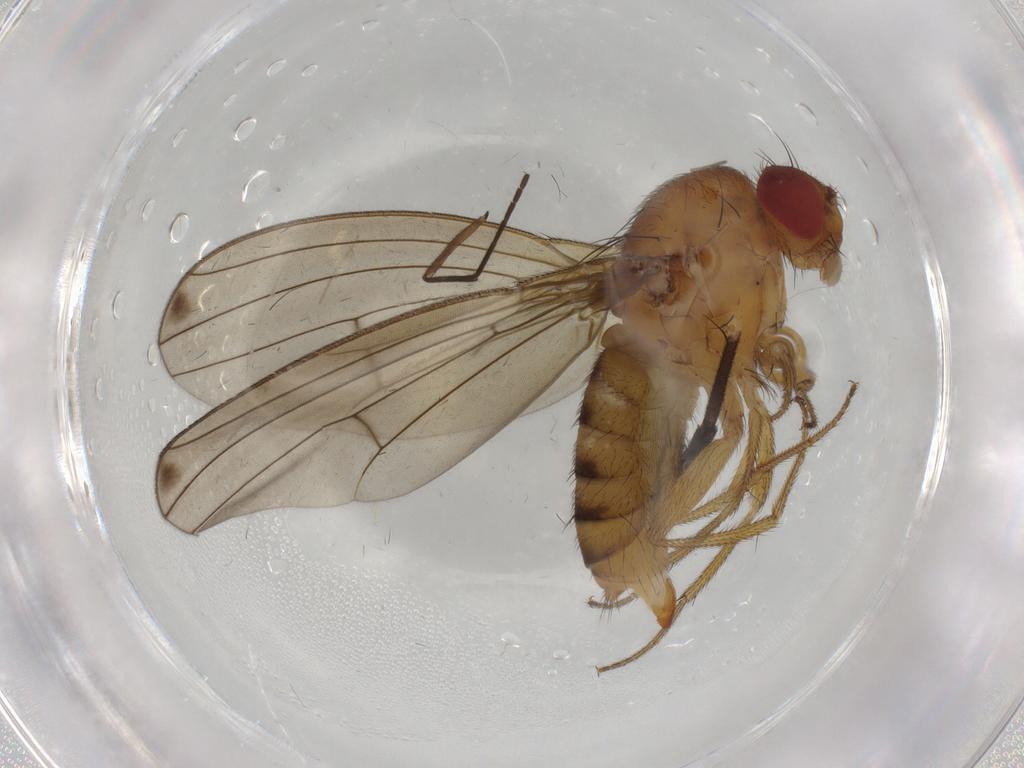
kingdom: Animalia
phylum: Arthropoda
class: Insecta
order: Diptera
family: Drosophilidae
